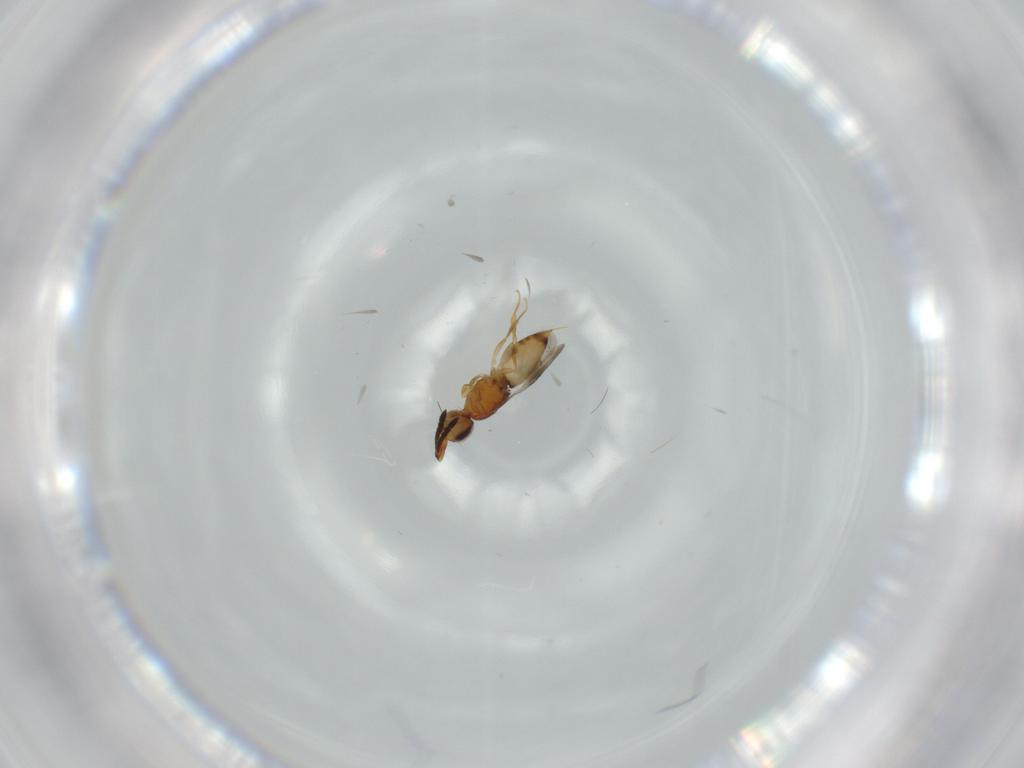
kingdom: Animalia
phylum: Arthropoda
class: Insecta
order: Hymenoptera
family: Ceraphronidae
